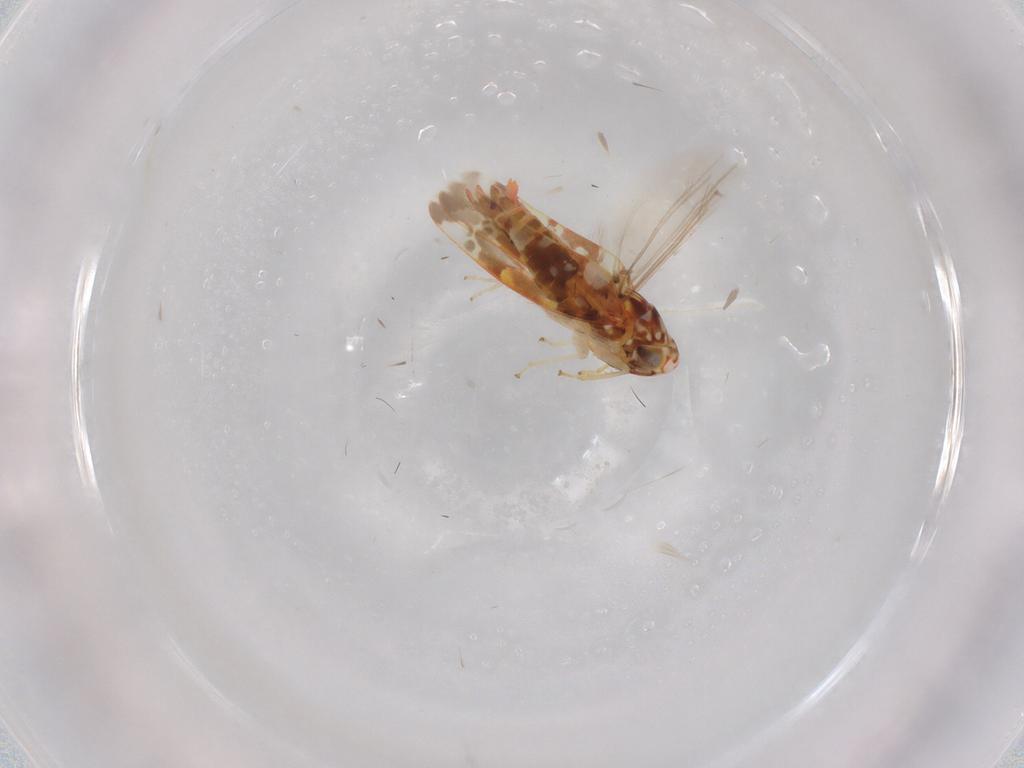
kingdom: Animalia
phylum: Arthropoda
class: Insecta
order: Hemiptera
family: Cicadellidae
